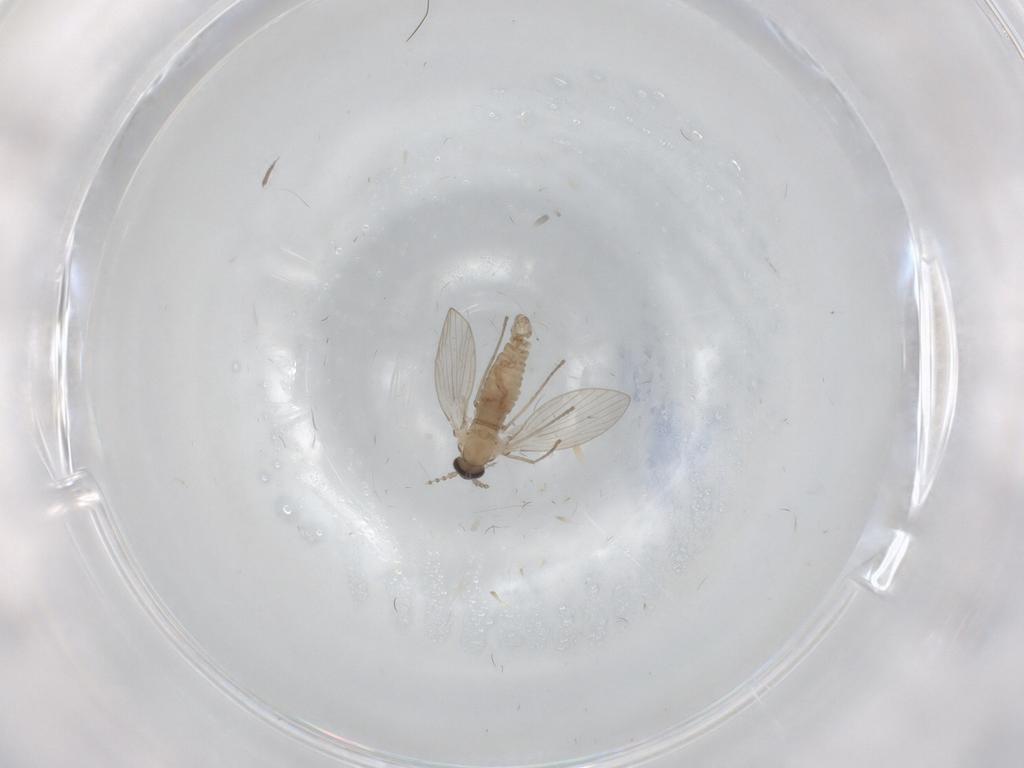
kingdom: Animalia
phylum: Arthropoda
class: Insecta
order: Diptera
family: Psychodidae
